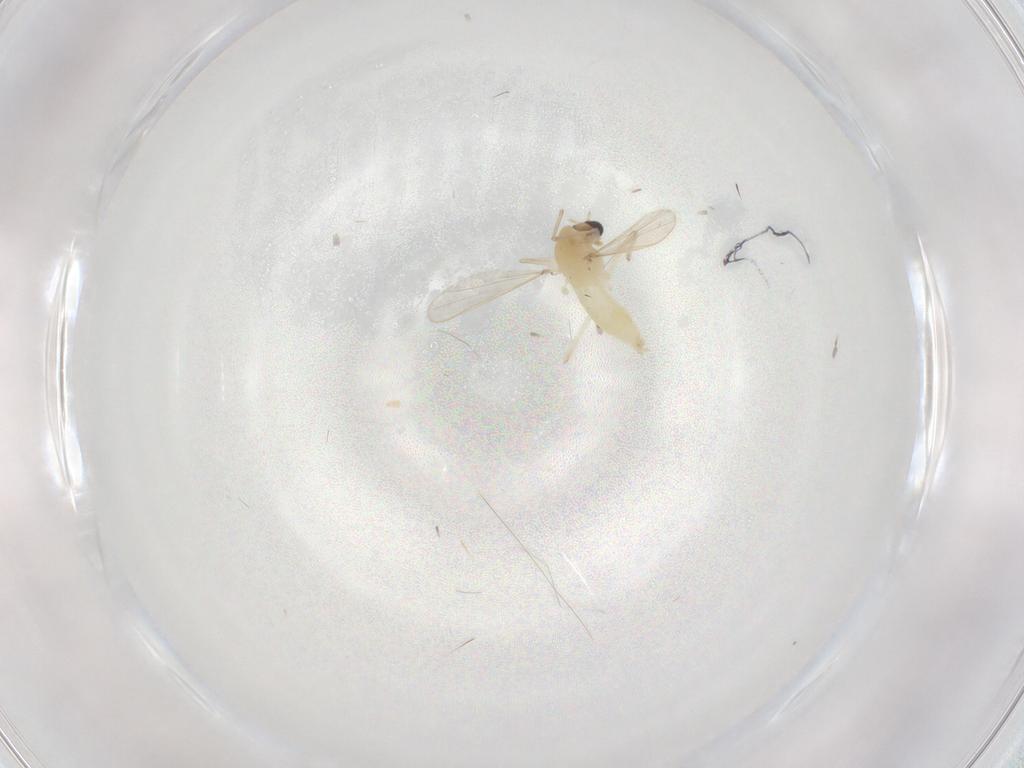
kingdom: Animalia
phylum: Arthropoda
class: Insecta
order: Diptera
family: Chironomidae
